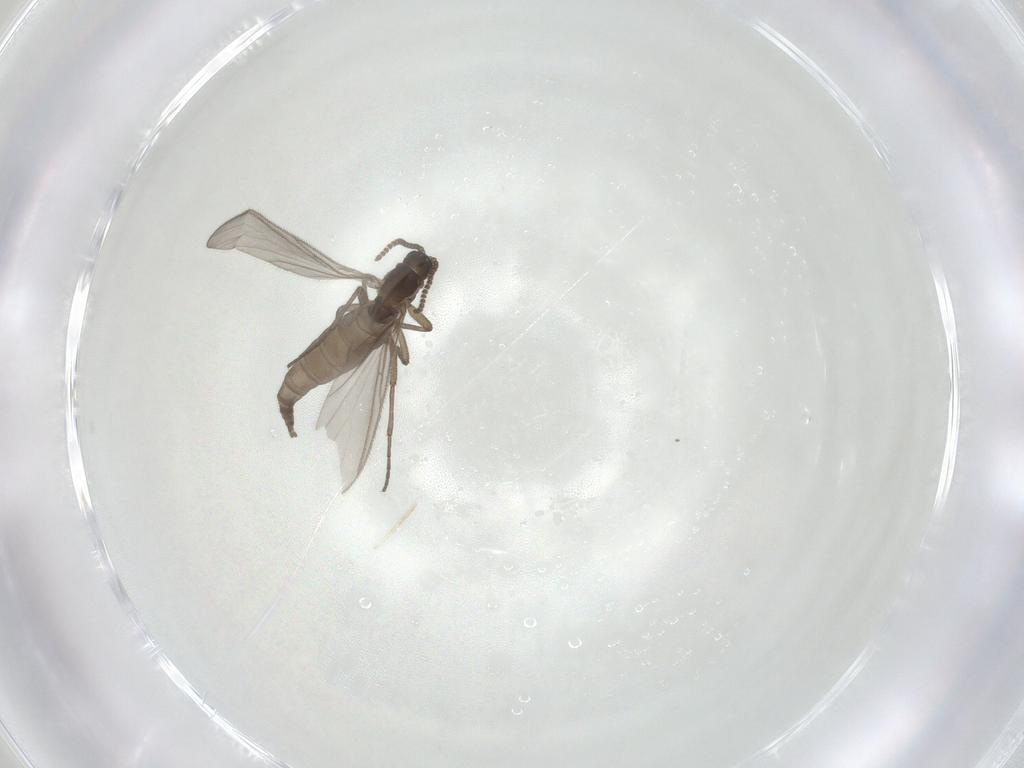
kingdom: Animalia
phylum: Arthropoda
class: Insecta
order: Diptera
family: Sciaridae
